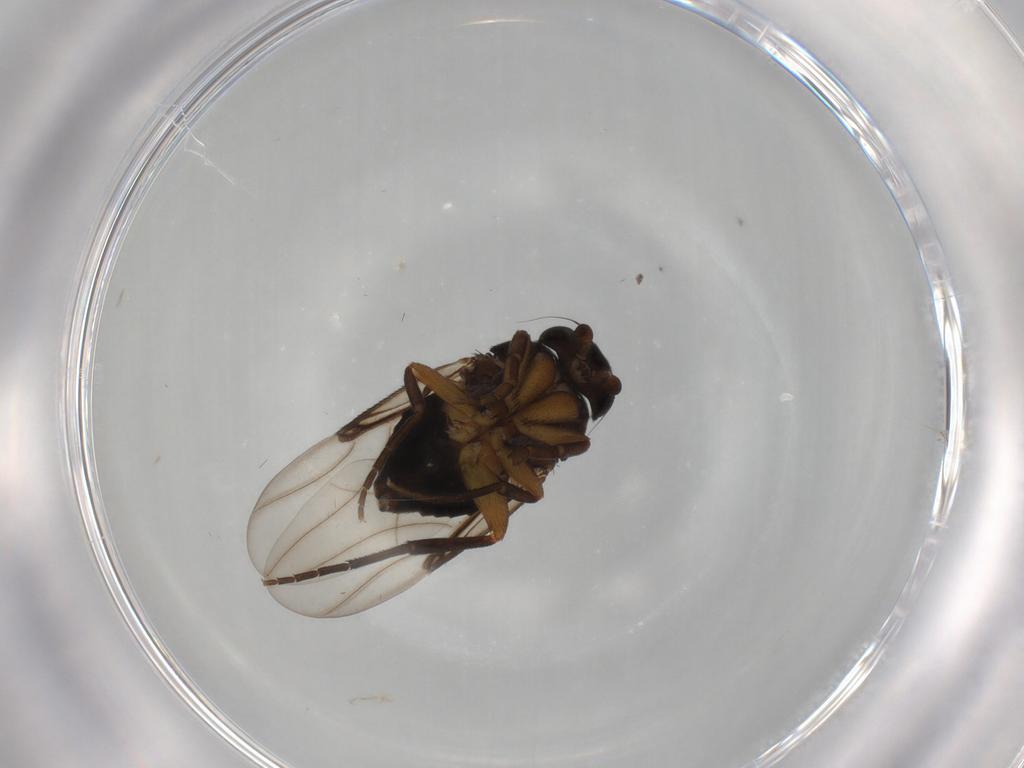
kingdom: Animalia
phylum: Arthropoda
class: Insecta
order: Diptera
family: Phoridae
